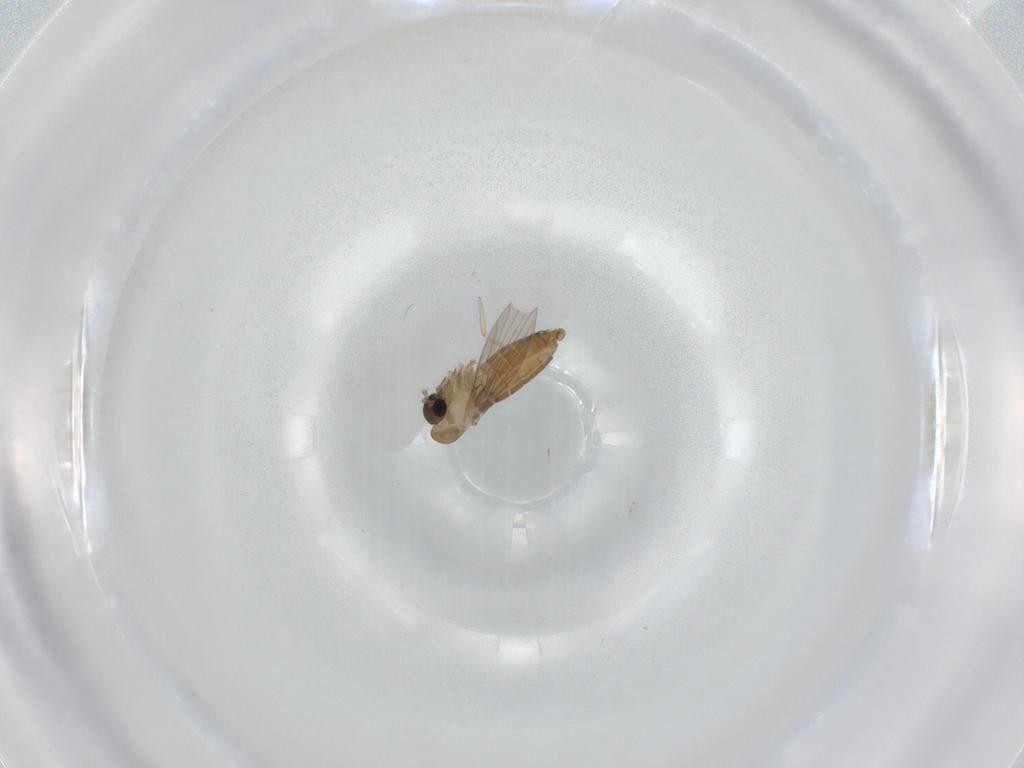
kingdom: Animalia
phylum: Arthropoda
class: Insecta
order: Diptera
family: Psychodidae
